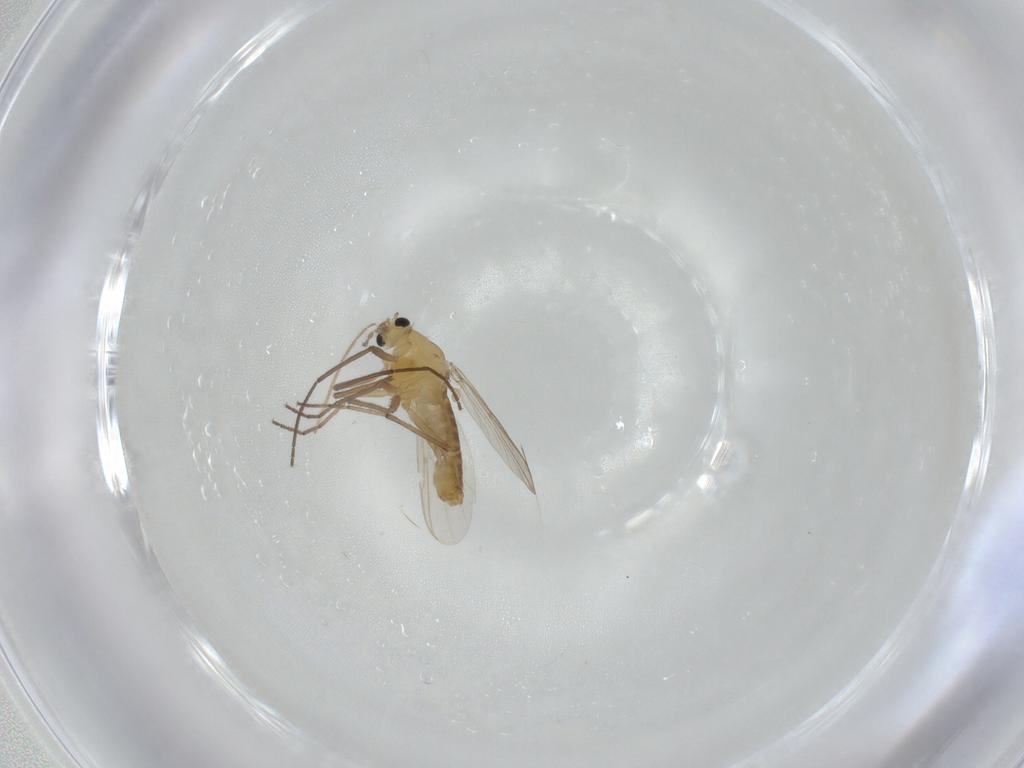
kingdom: Animalia
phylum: Arthropoda
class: Insecta
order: Diptera
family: Chironomidae
